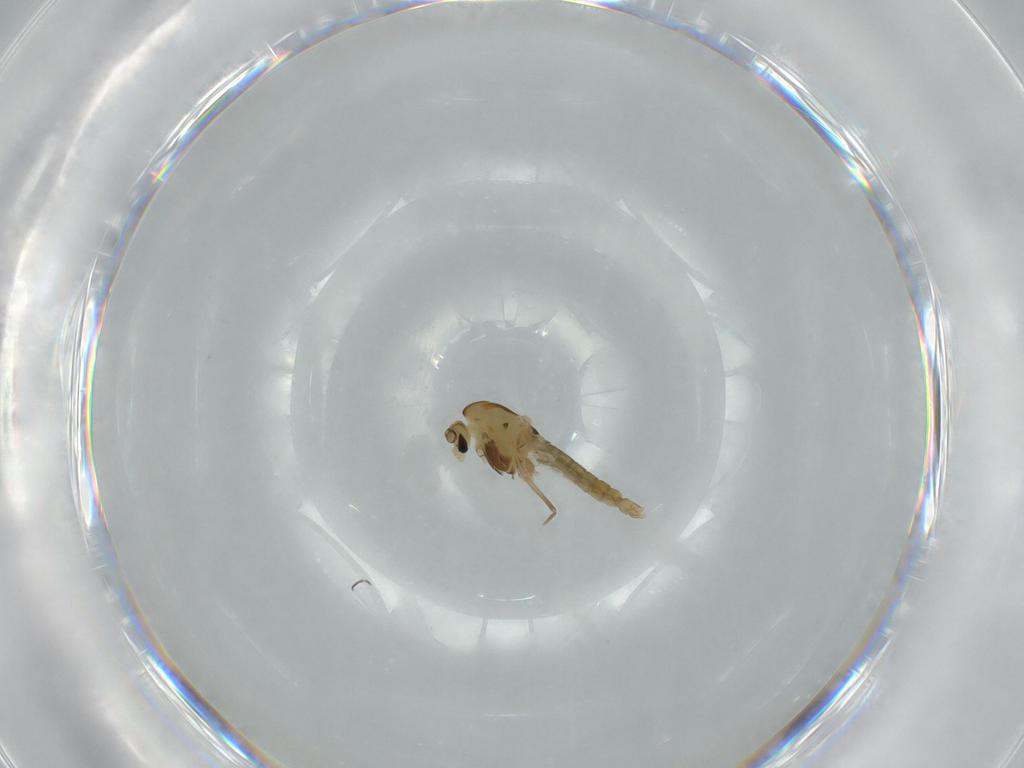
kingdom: Animalia
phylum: Arthropoda
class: Insecta
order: Diptera
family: Chironomidae
